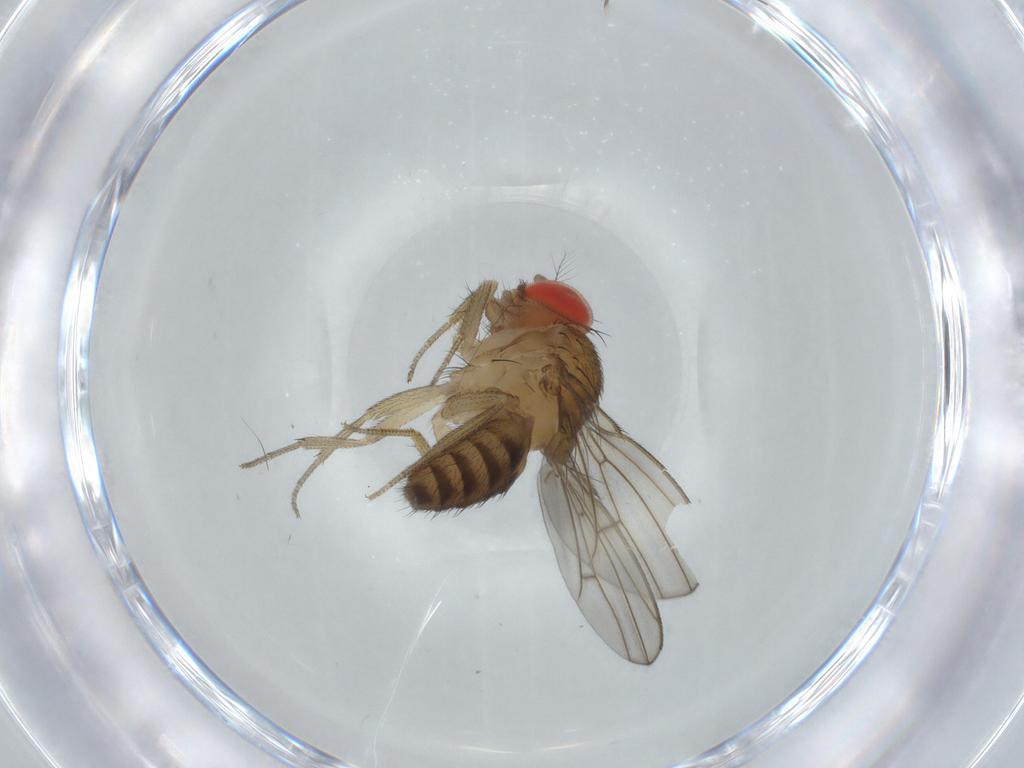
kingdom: Animalia
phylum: Arthropoda
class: Insecta
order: Diptera
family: Drosophilidae
